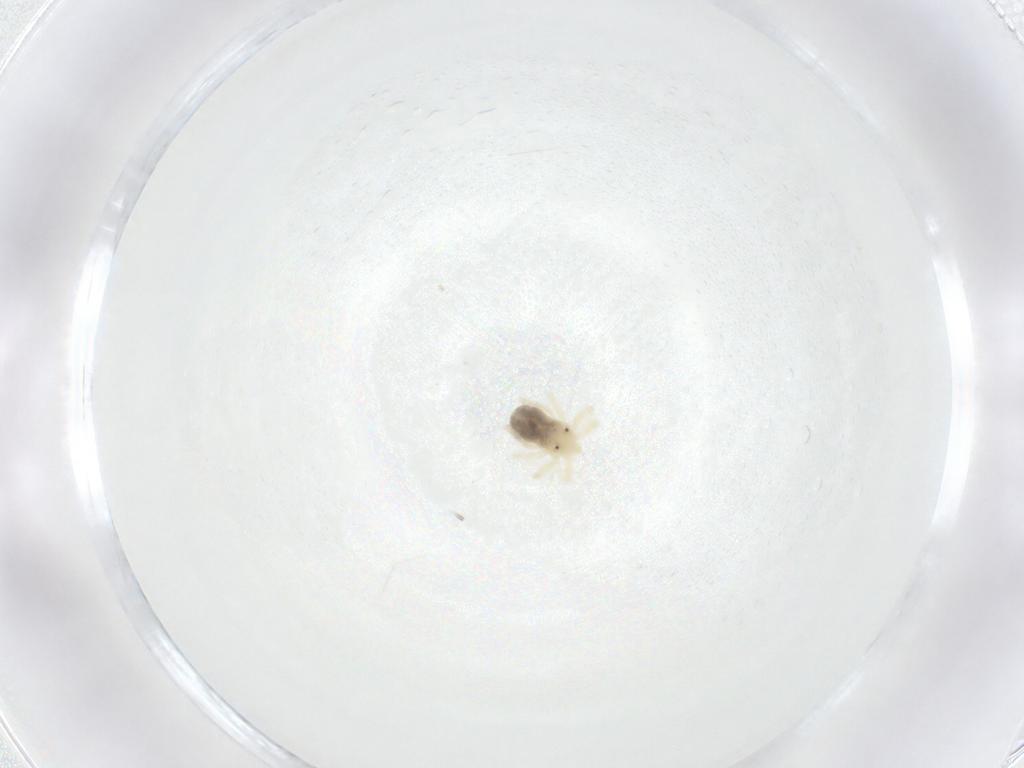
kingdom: Animalia
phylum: Arthropoda
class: Arachnida
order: Trombidiformes
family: Anystidae
